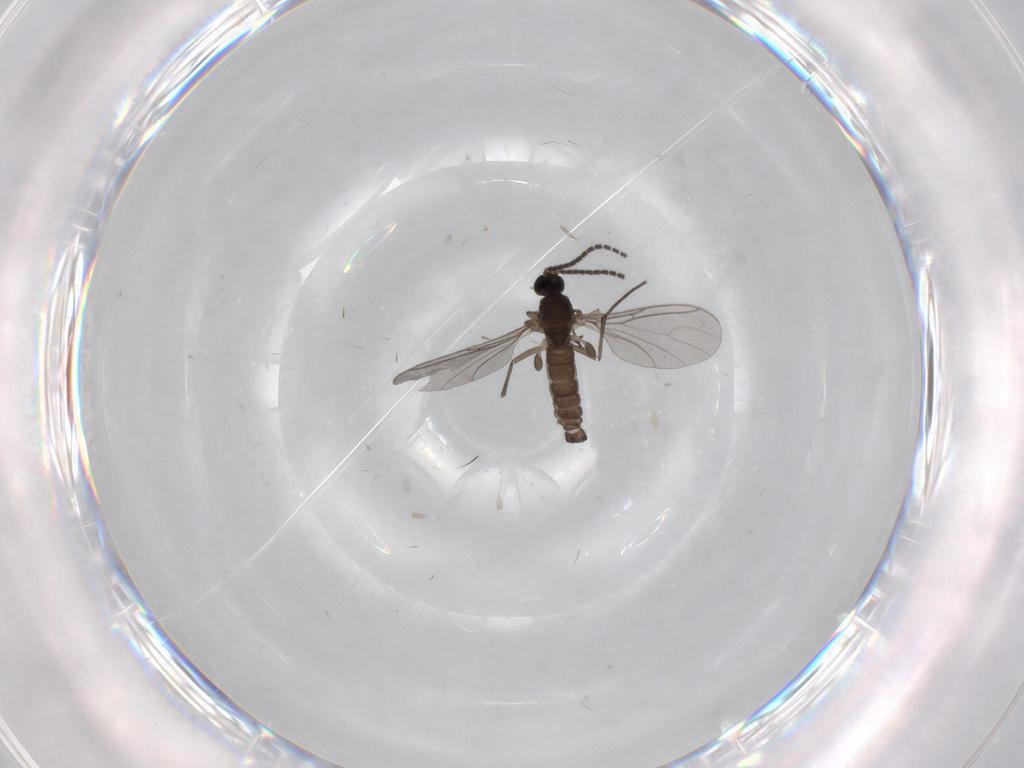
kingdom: Animalia
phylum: Arthropoda
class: Insecta
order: Diptera
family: Sciaridae
